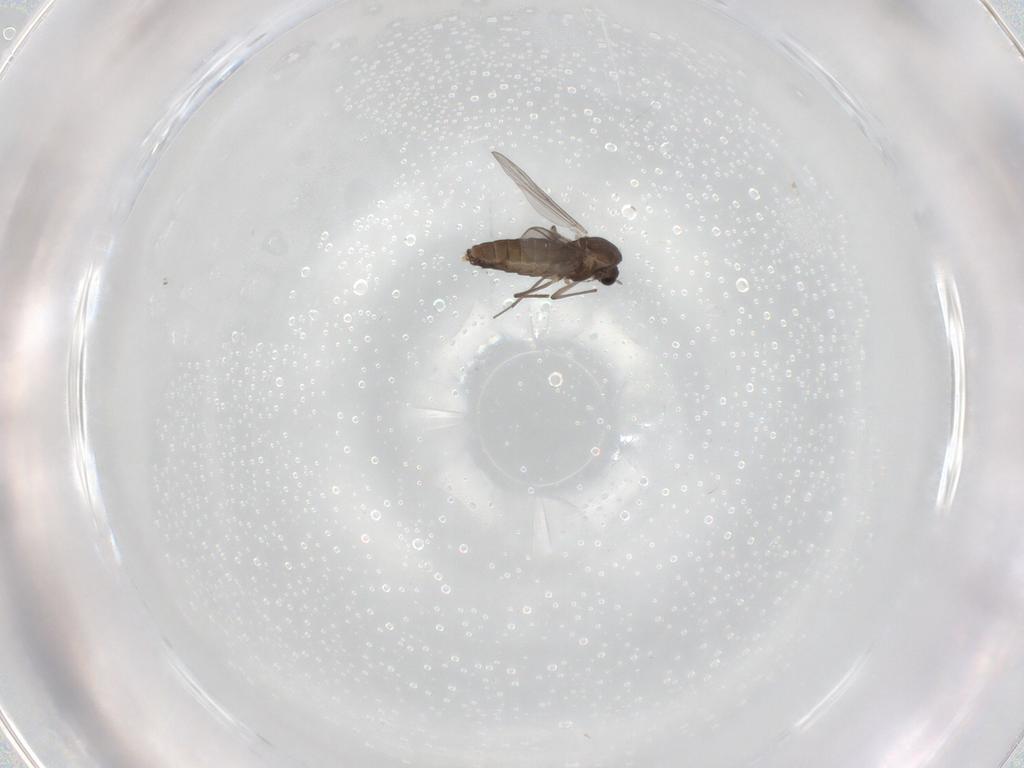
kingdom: Animalia
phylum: Arthropoda
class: Insecta
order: Diptera
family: Chironomidae
